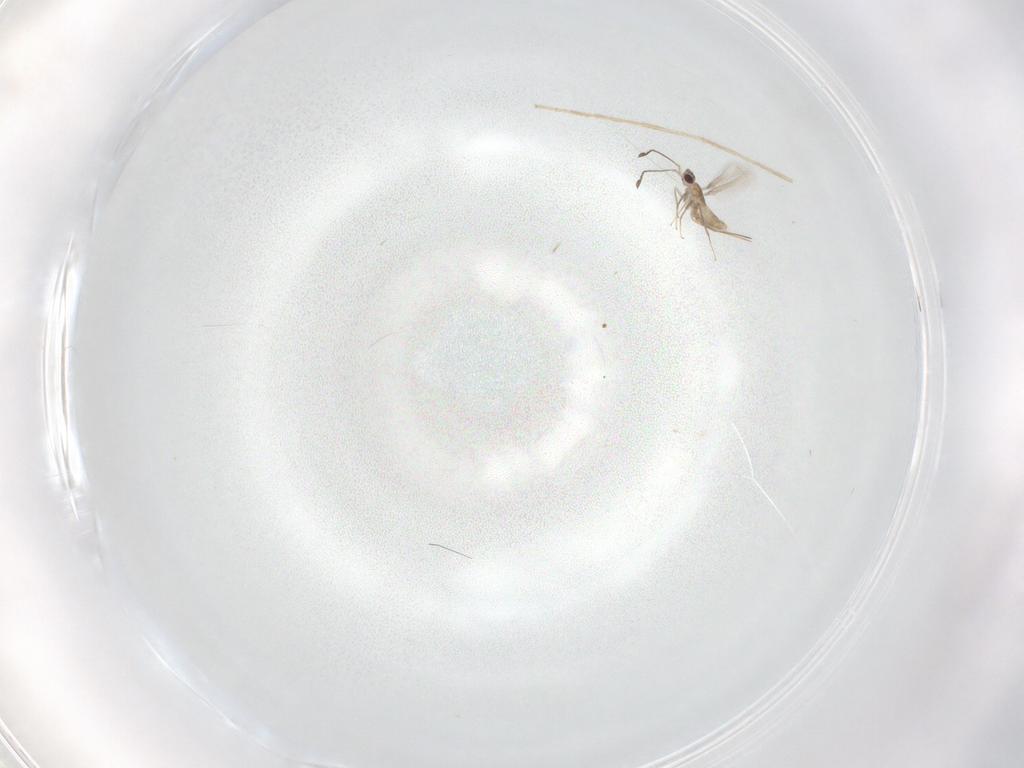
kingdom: Animalia
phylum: Arthropoda
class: Insecta
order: Diptera
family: Chironomidae
